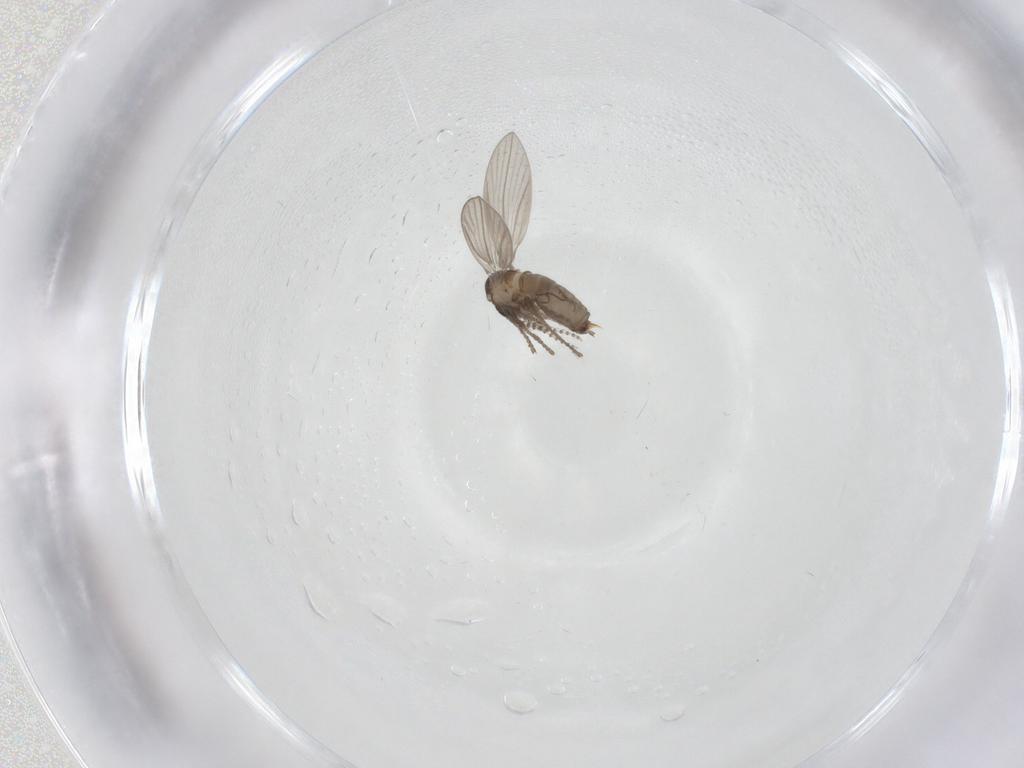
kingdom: Animalia
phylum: Arthropoda
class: Insecta
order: Diptera
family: Psychodidae
